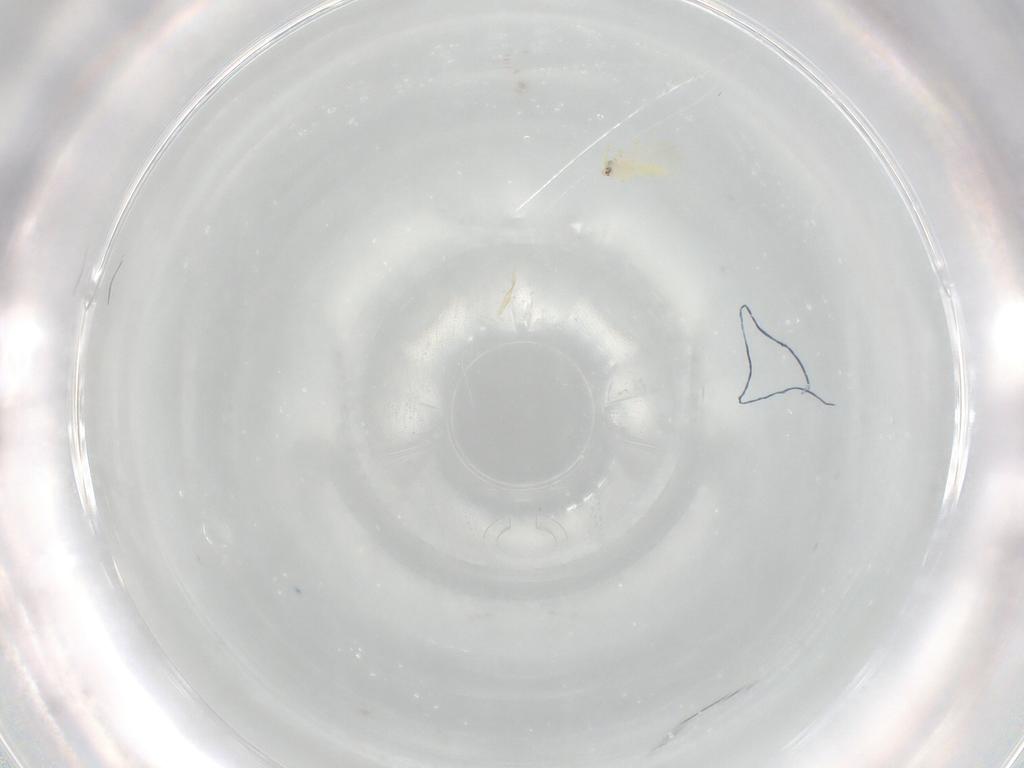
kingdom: Animalia
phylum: Arthropoda
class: Insecta
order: Hemiptera
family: Aleyrodidae
